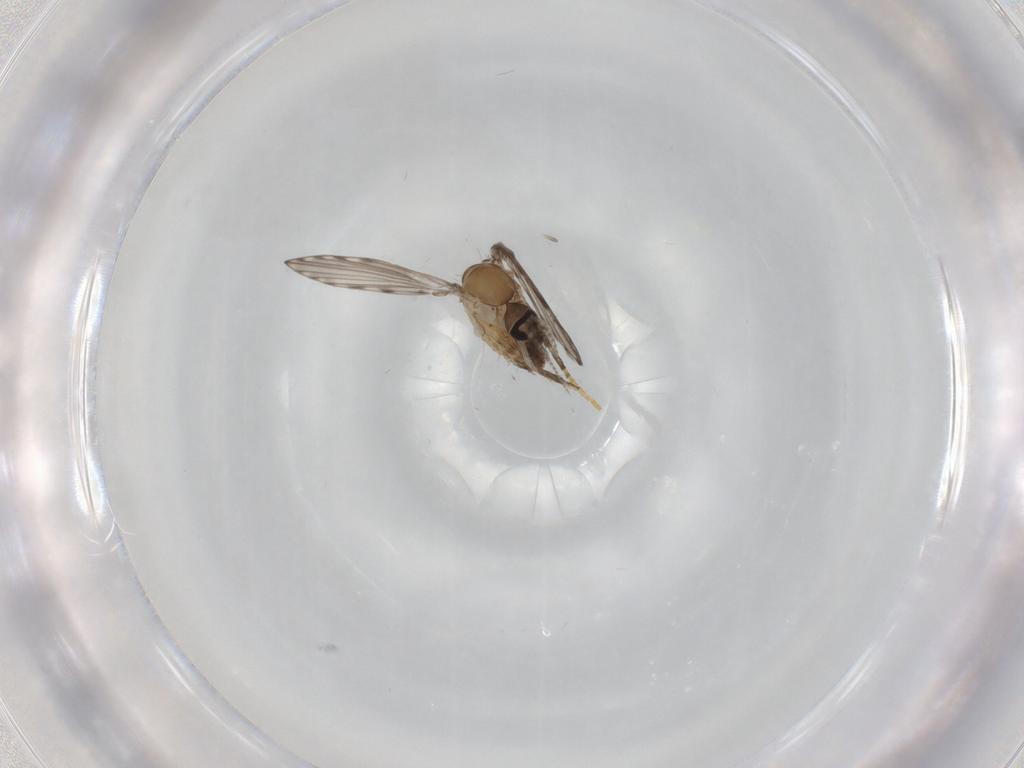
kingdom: Animalia
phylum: Arthropoda
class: Insecta
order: Diptera
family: Psychodidae
